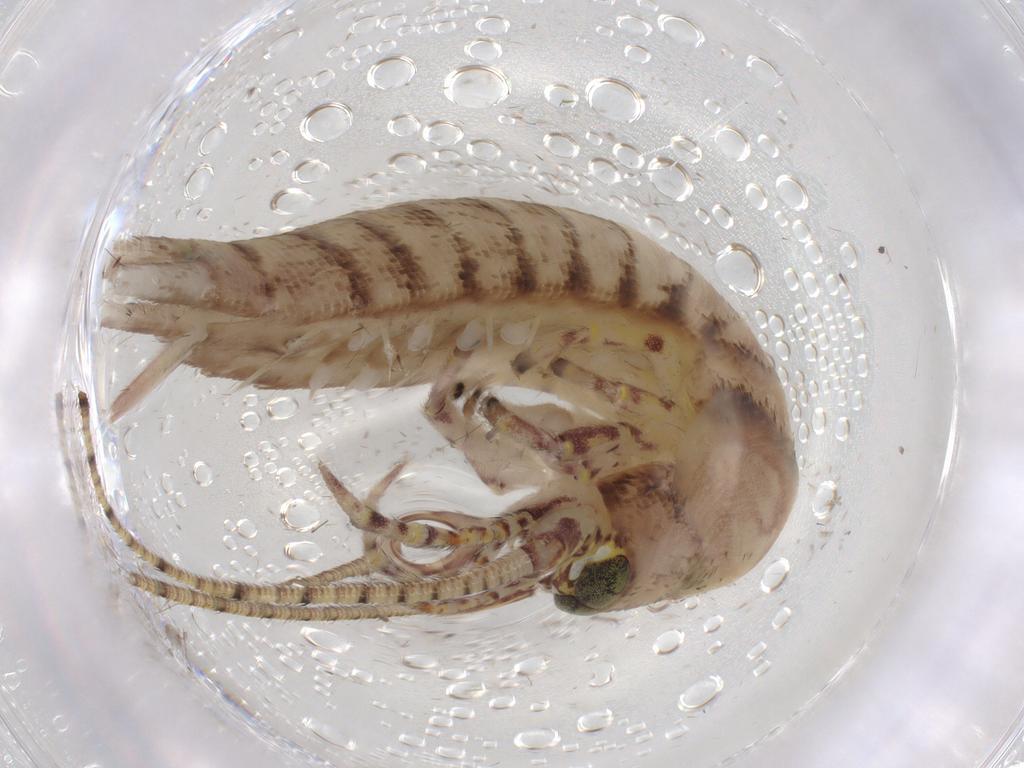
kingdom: Animalia
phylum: Arthropoda
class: Insecta
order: Archaeognatha
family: Machilidae
